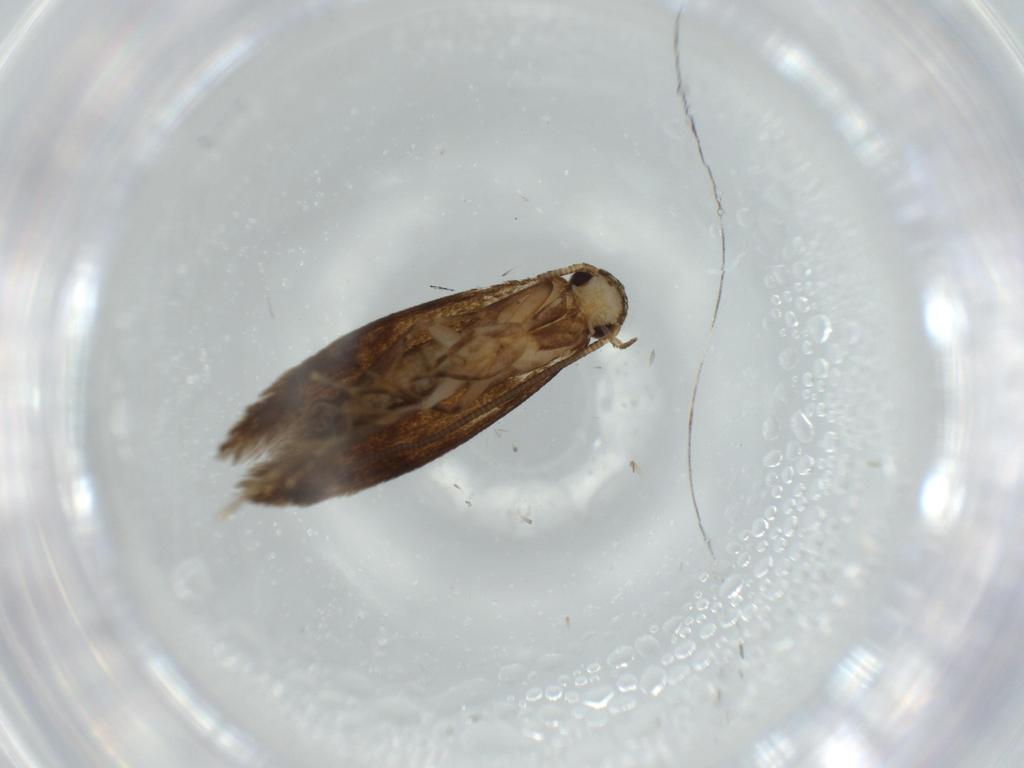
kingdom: Animalia
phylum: Arthropoda
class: Insecta
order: Lepidoptera
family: Tineidae
